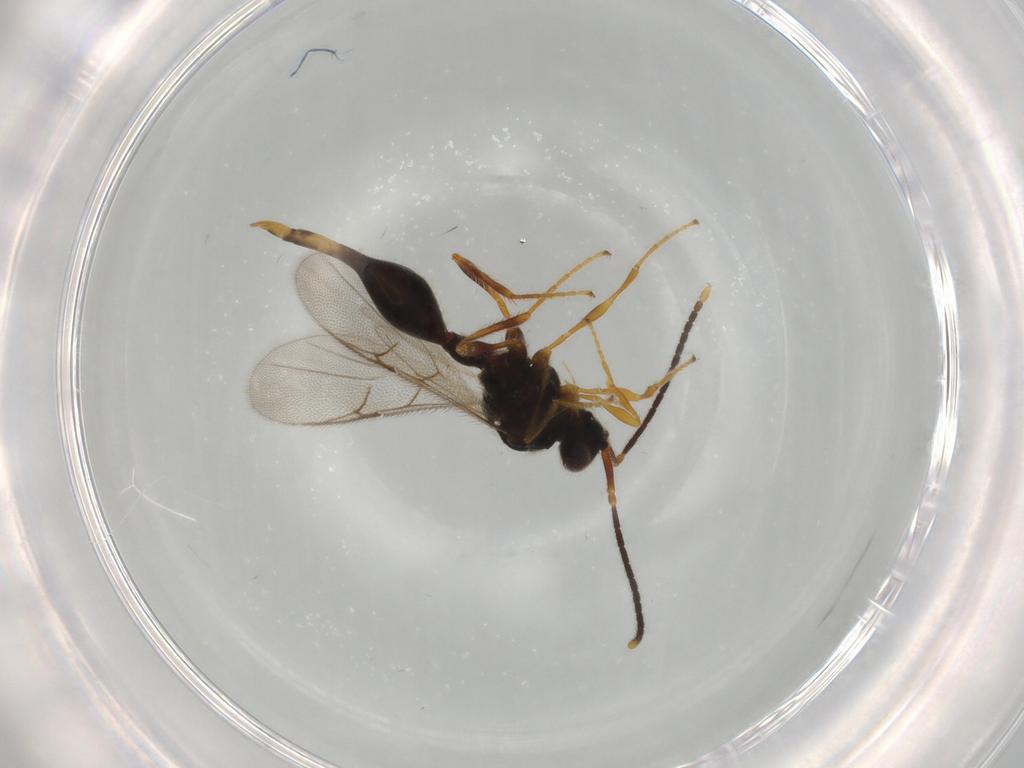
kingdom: Animalia
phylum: Arthropoda
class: Insecta
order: Hymenoptera
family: Diapriidae
